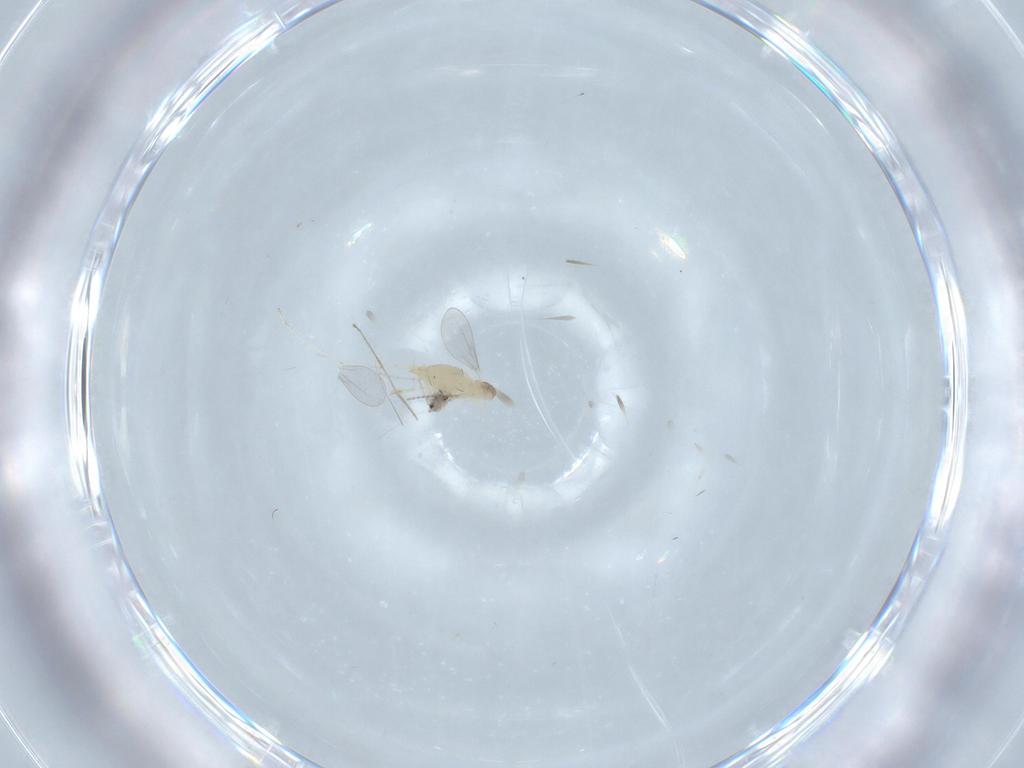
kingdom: Animalia
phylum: Arthropoda
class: Insecta
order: Diptera
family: Cecidomyiidae
